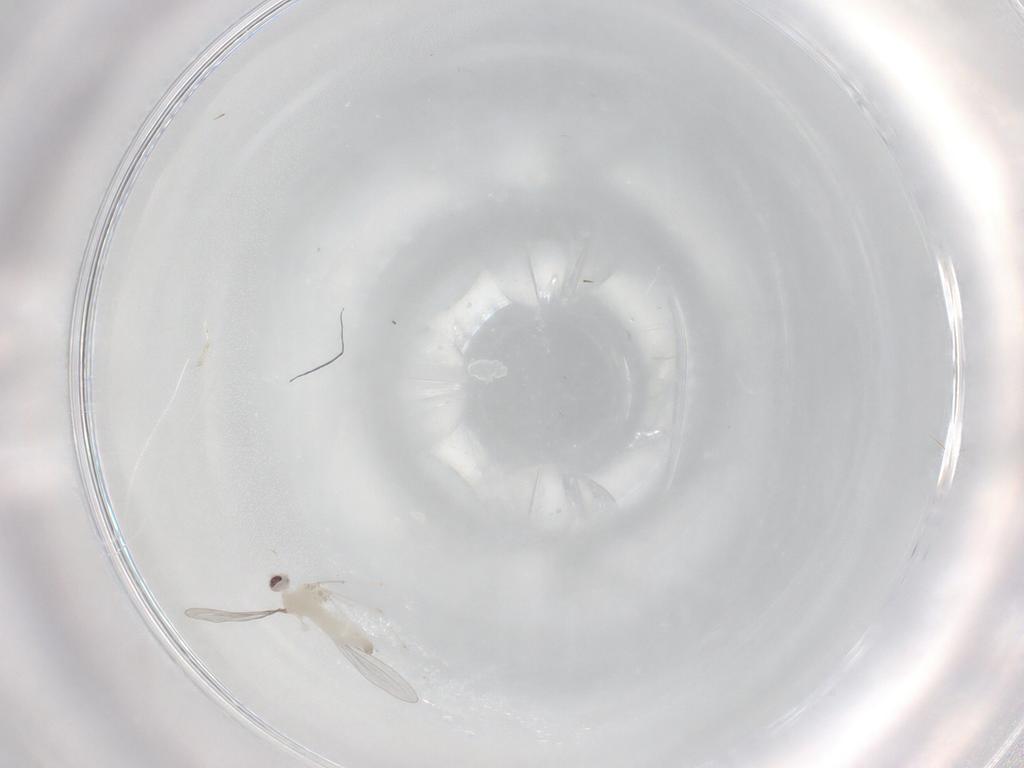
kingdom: Animalia
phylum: Arthropoda
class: Insecta
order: Diptera
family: Cecidomyiidae
